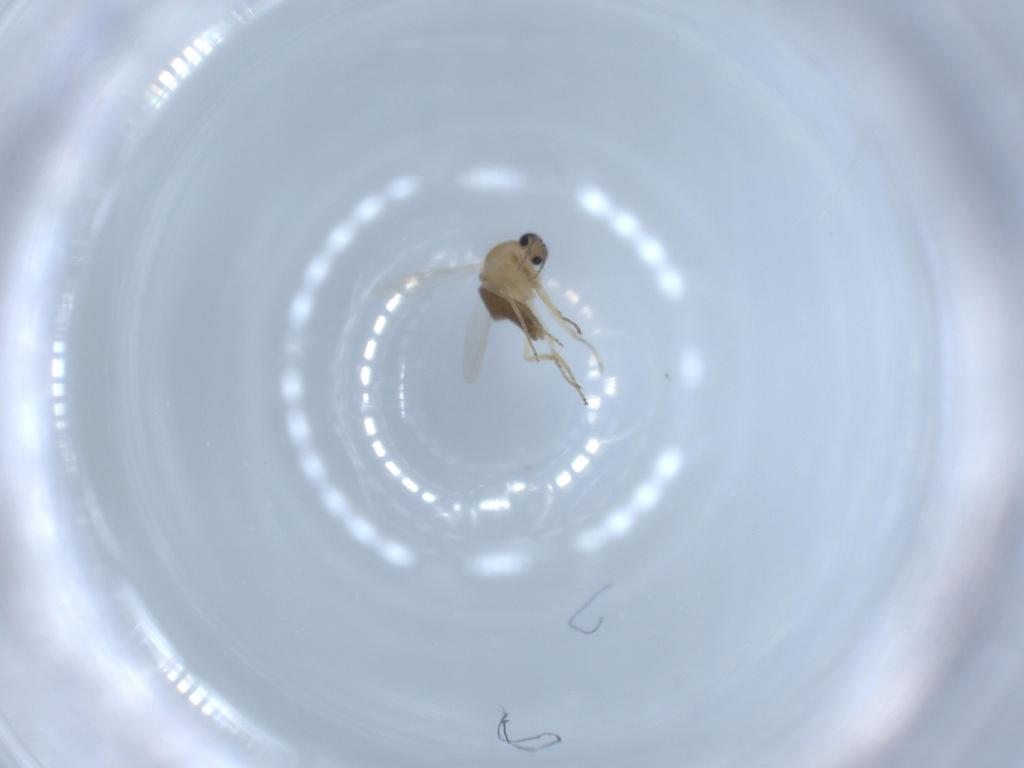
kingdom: Animalia
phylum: Arthropoda
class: Insecta
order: Diptera
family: Ceratopogonidae
